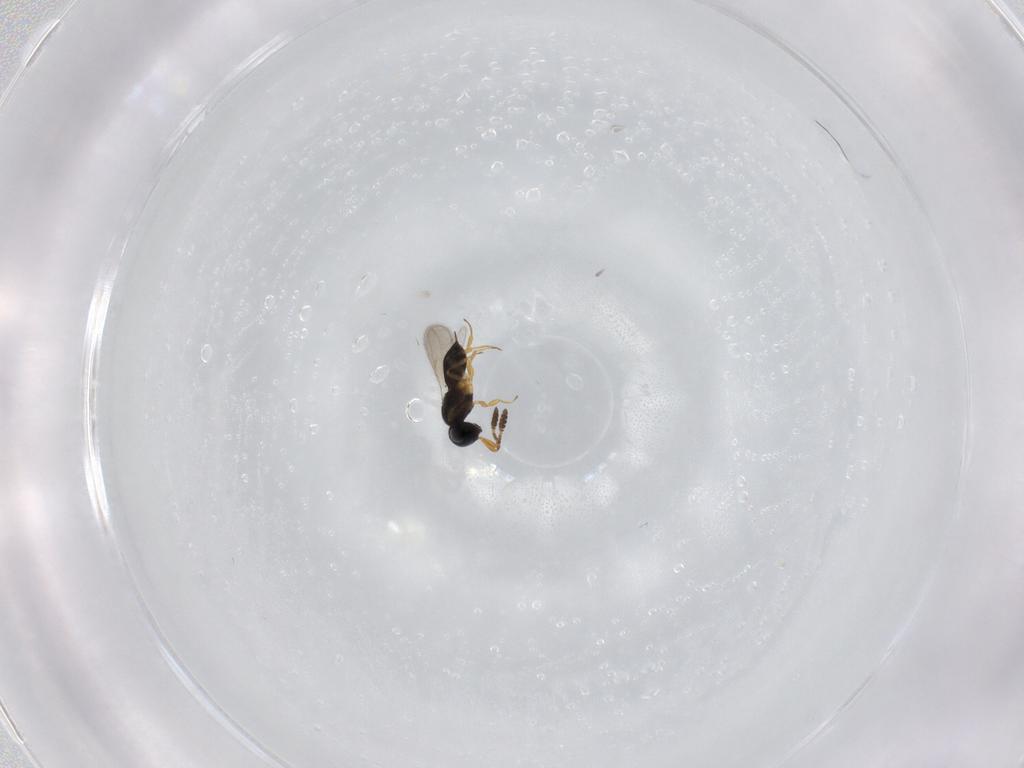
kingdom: Animalia
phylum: Arthropoda
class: Insecta
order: Hymenoptera
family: Scelionidae
